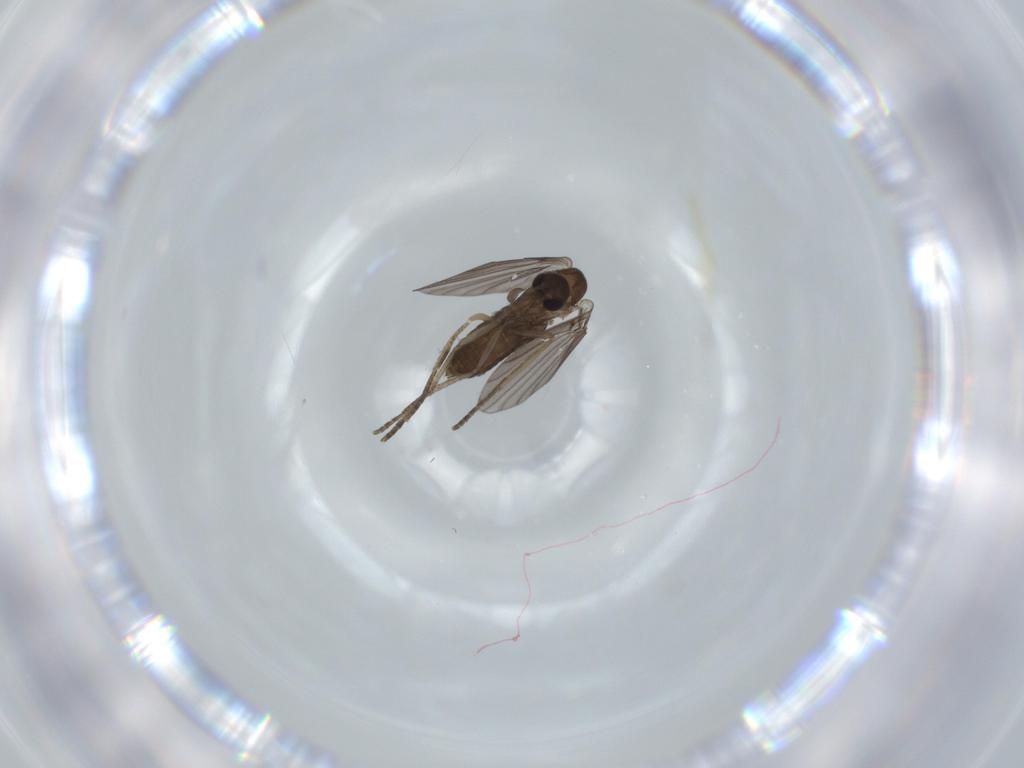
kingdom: Animalia
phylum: Arthropoda
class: Insecta
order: Diptera
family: Psychodidae
